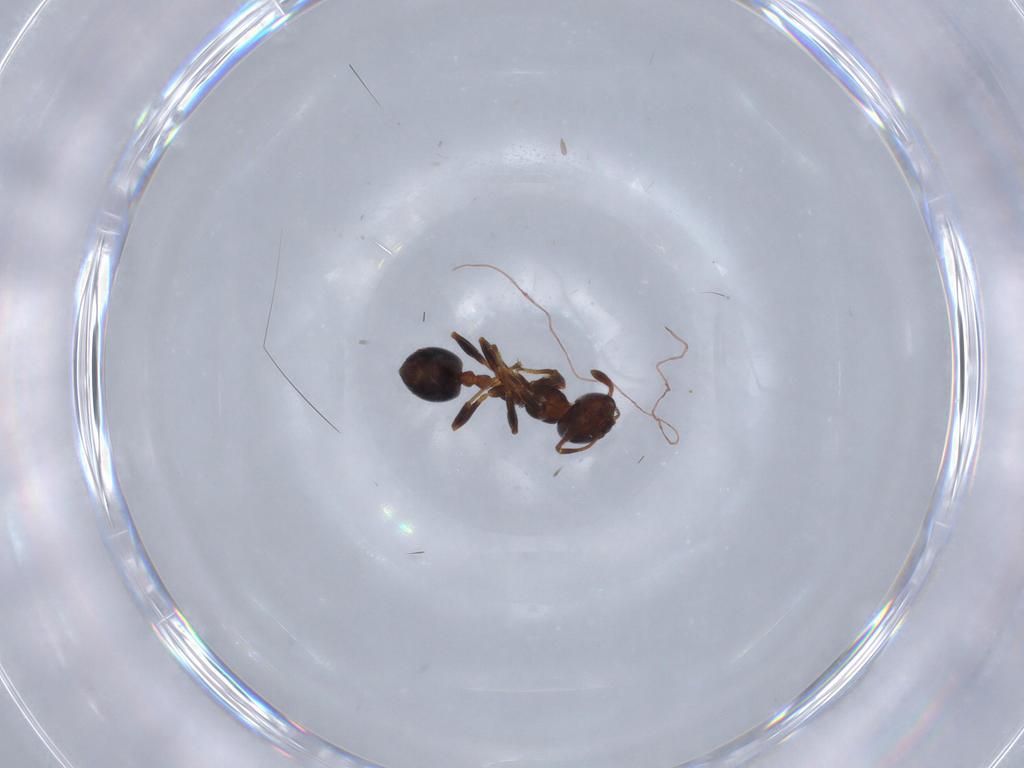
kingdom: Animalia
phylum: Arthropoda
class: Insecta
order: Hymenoptera
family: Formicidae
